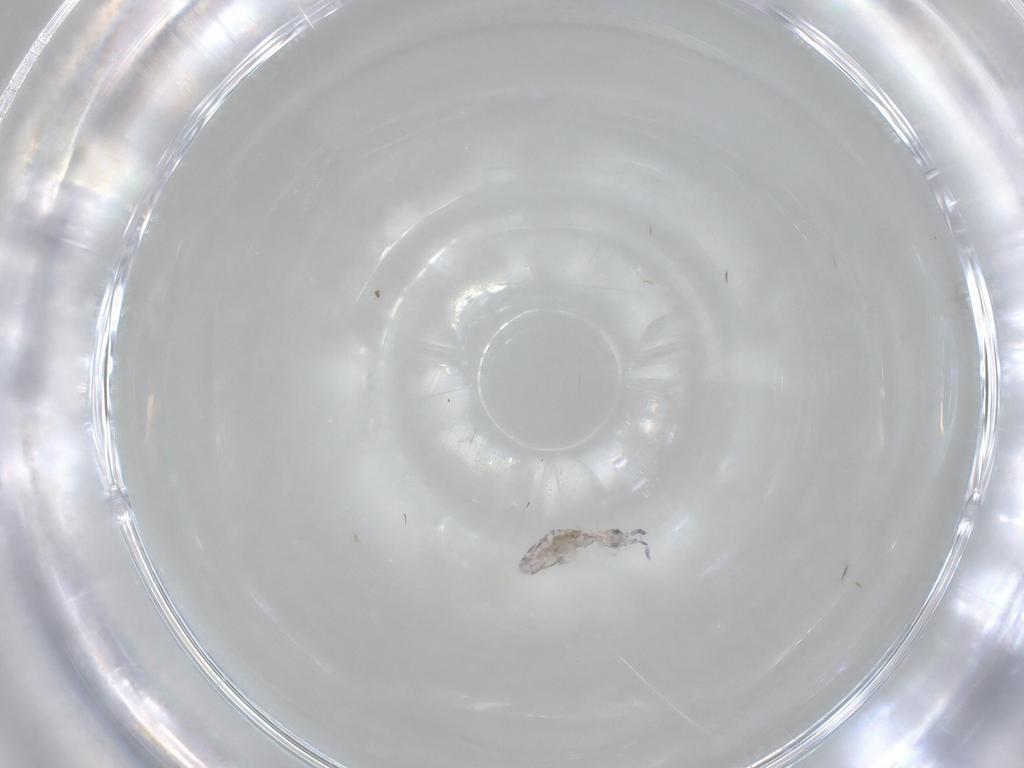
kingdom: Animalia
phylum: Arthropoda
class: Collembola
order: Entomobryomorpha
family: Entomobryidae
